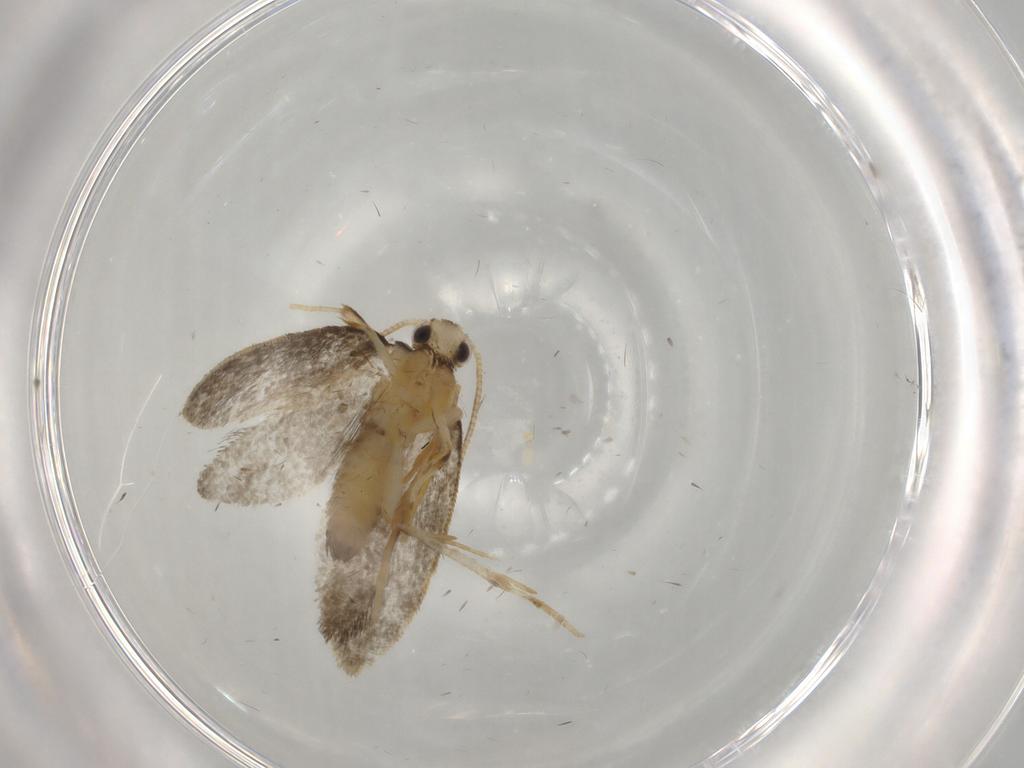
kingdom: Animalia
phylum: Arthropoda
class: Insecta
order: Lepidoptera
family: Psychidae
